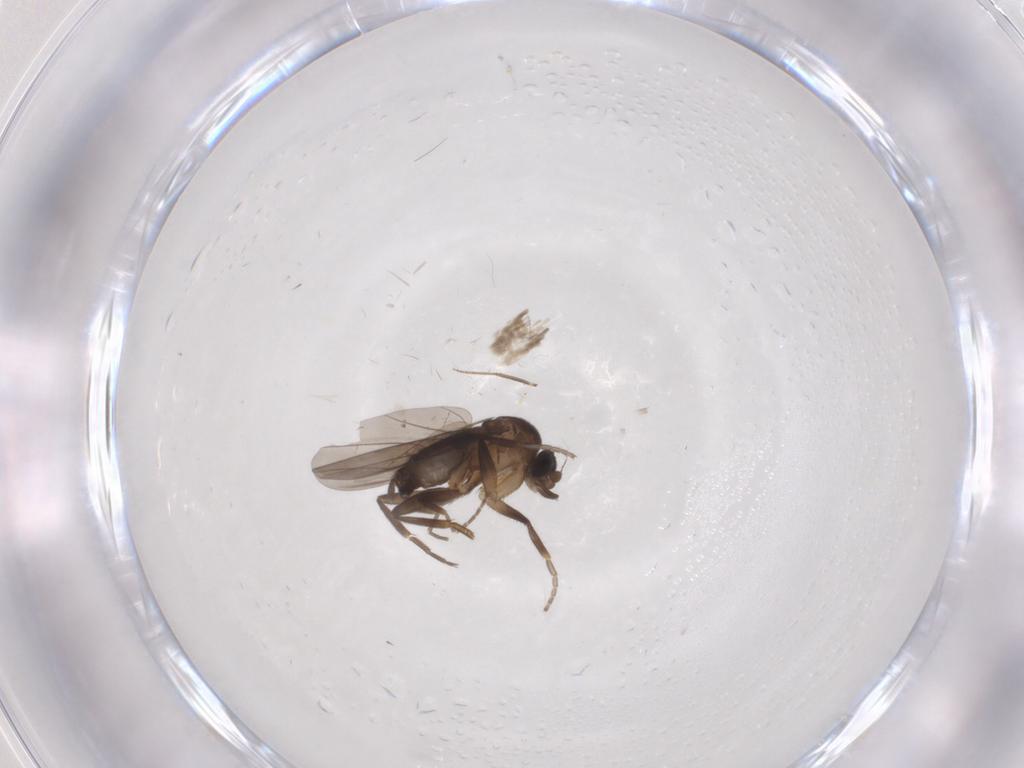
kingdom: Animalia
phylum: Arthropoda
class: Insecta
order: Diptera
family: Phoridae
